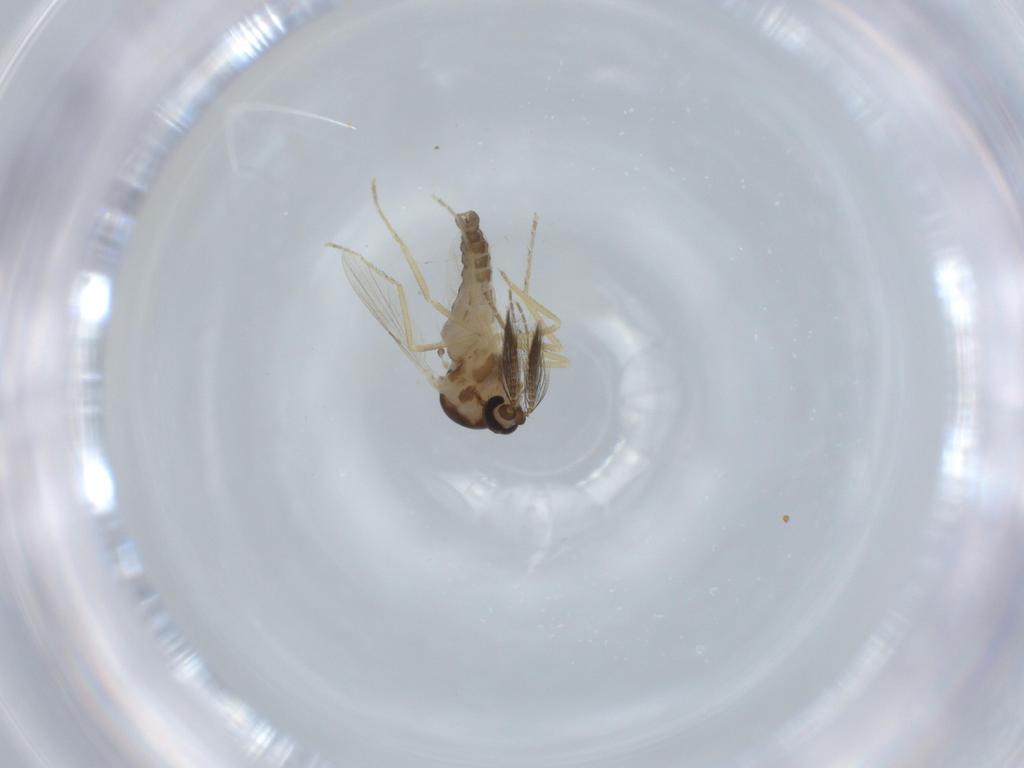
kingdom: Animalia
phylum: Arthropoda
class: Insecta
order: Diptera
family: Ceratopogonidae
